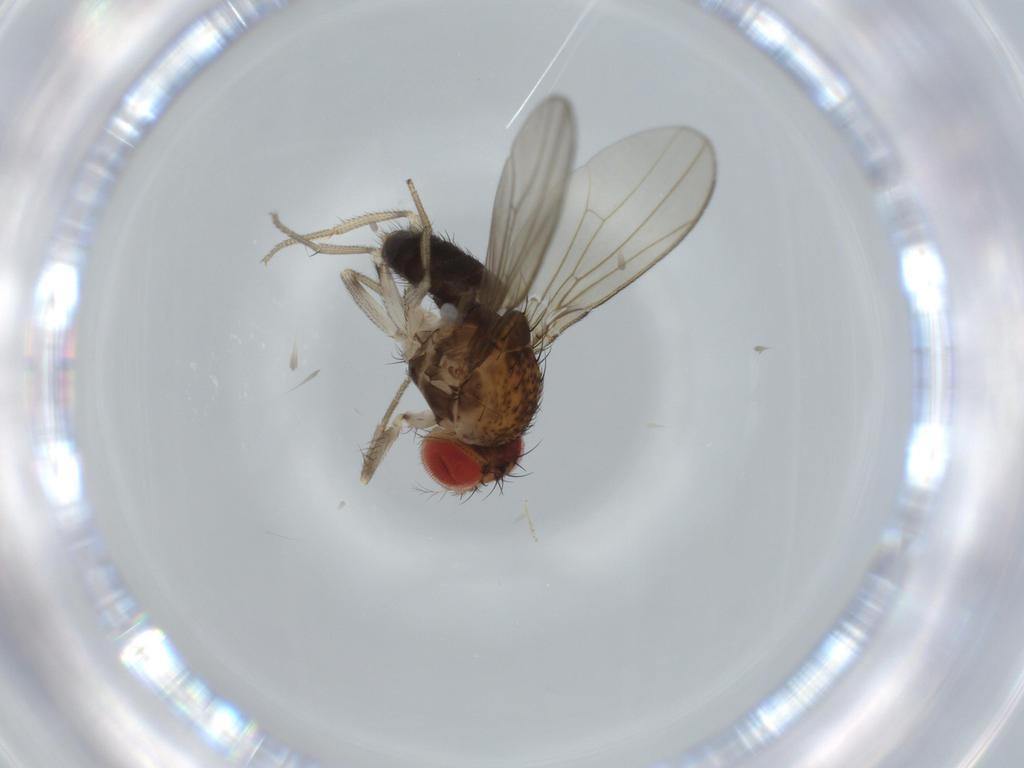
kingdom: Animalia
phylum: Arthropoda
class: Insecta
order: Diptera
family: Drosophilidae
